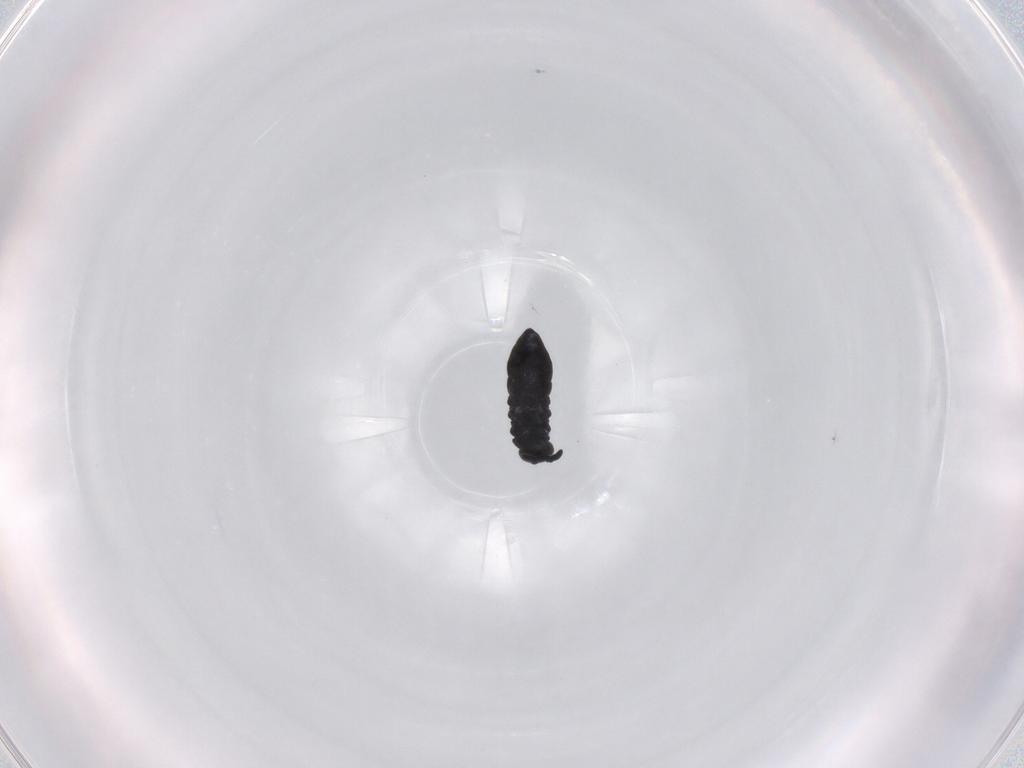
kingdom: Animalia
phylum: Arthropoda
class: Collembola
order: Poduromorpha
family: Hypogastruridae
